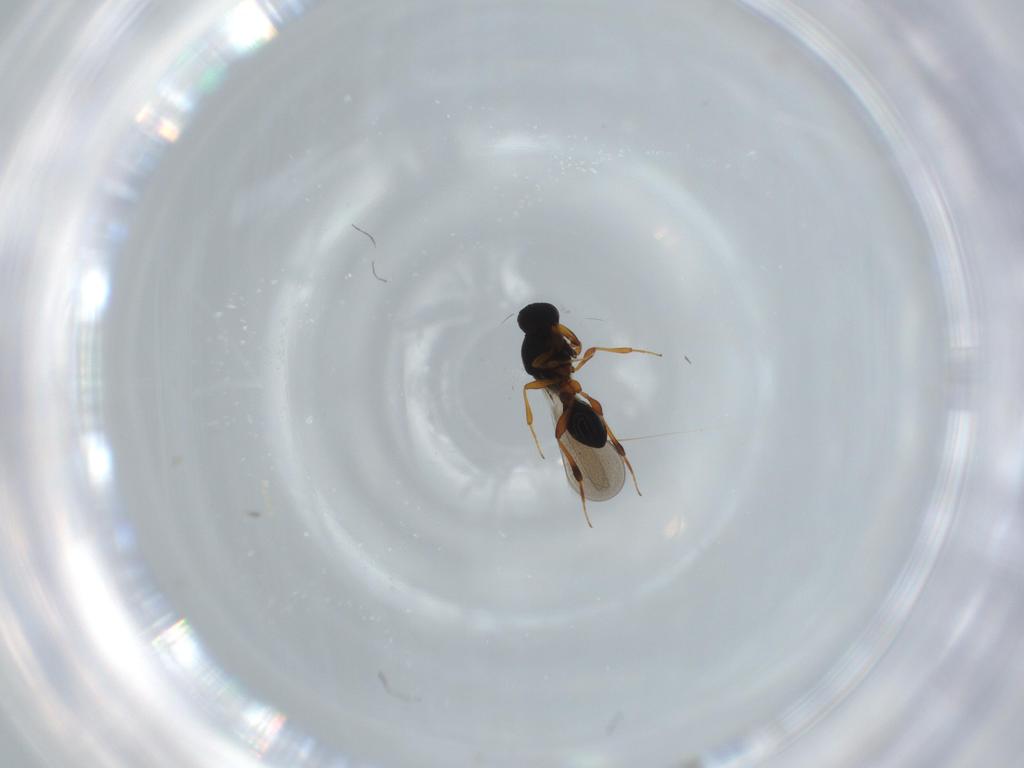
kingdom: Animalia
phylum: Arthropoda
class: Insecta
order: Hymenoptera
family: Platygastridae
